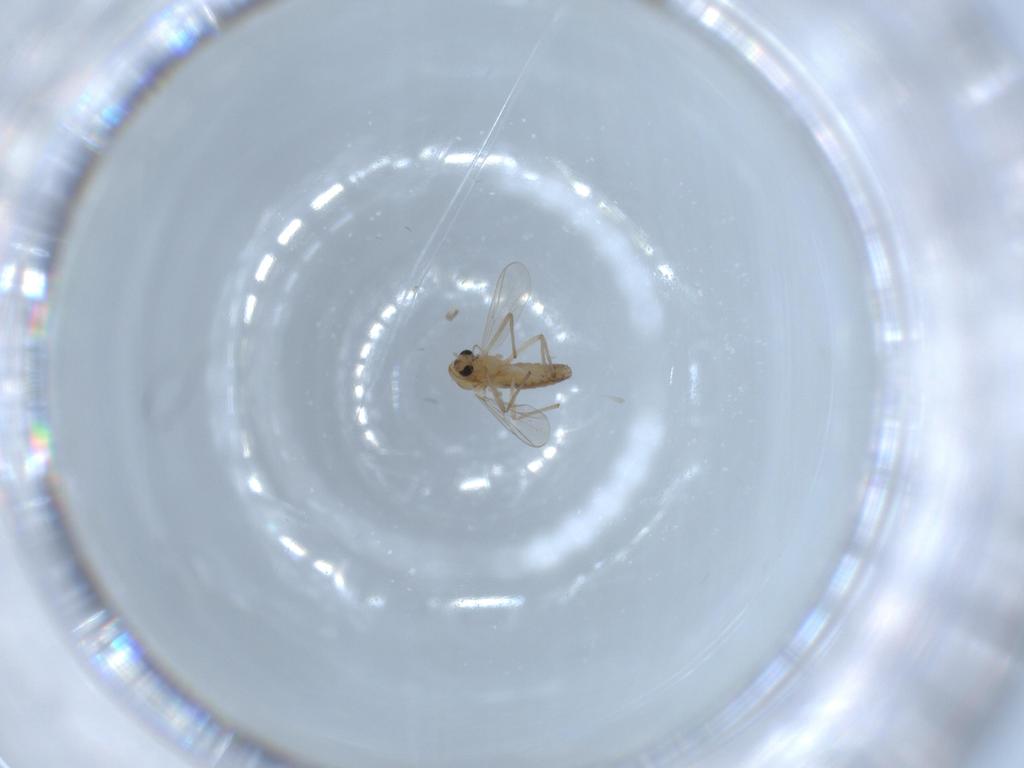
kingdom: Animalia
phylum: Arthropoda
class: Insecta
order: Diptera
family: Chironomidae
